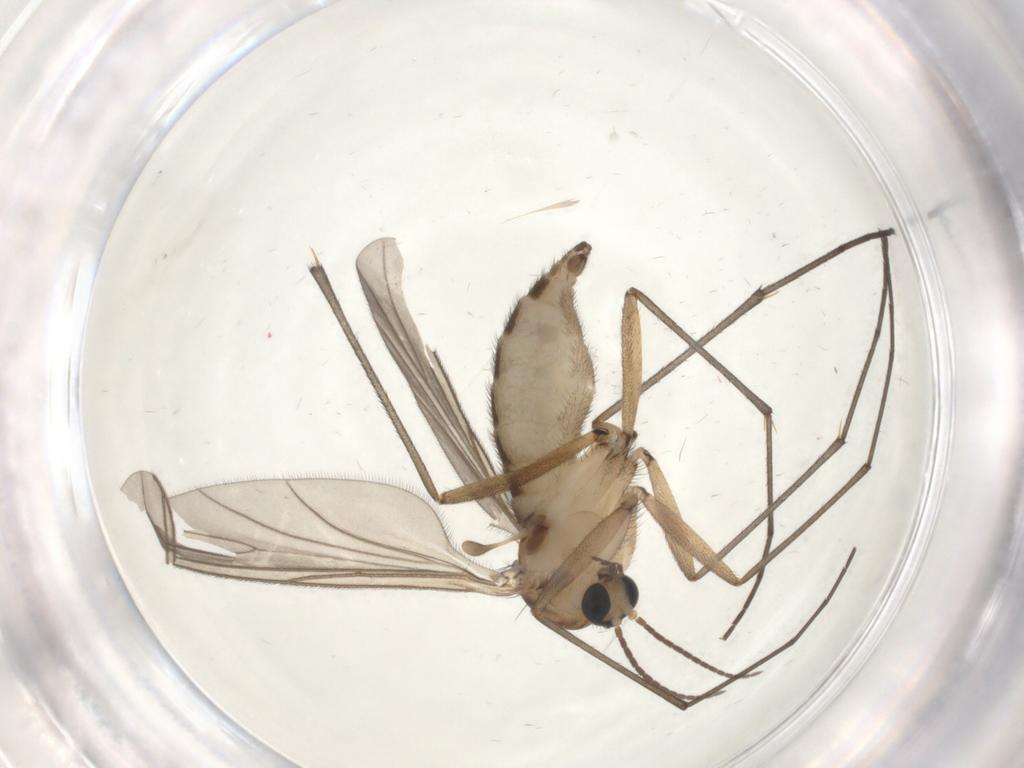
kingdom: Animalia
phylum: Arthropoda
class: Insecta
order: Diptera
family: Sciaridae
